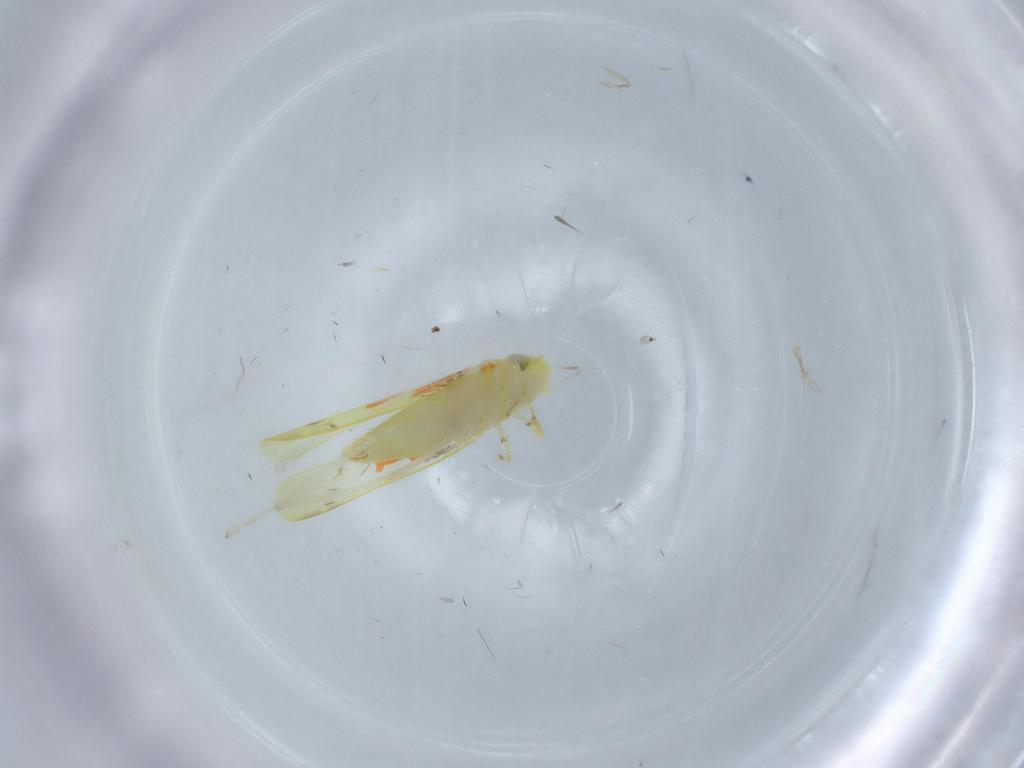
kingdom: Animalia
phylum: Arthropoda
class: Insecta
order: Hemiptera
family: Cicadellidae
